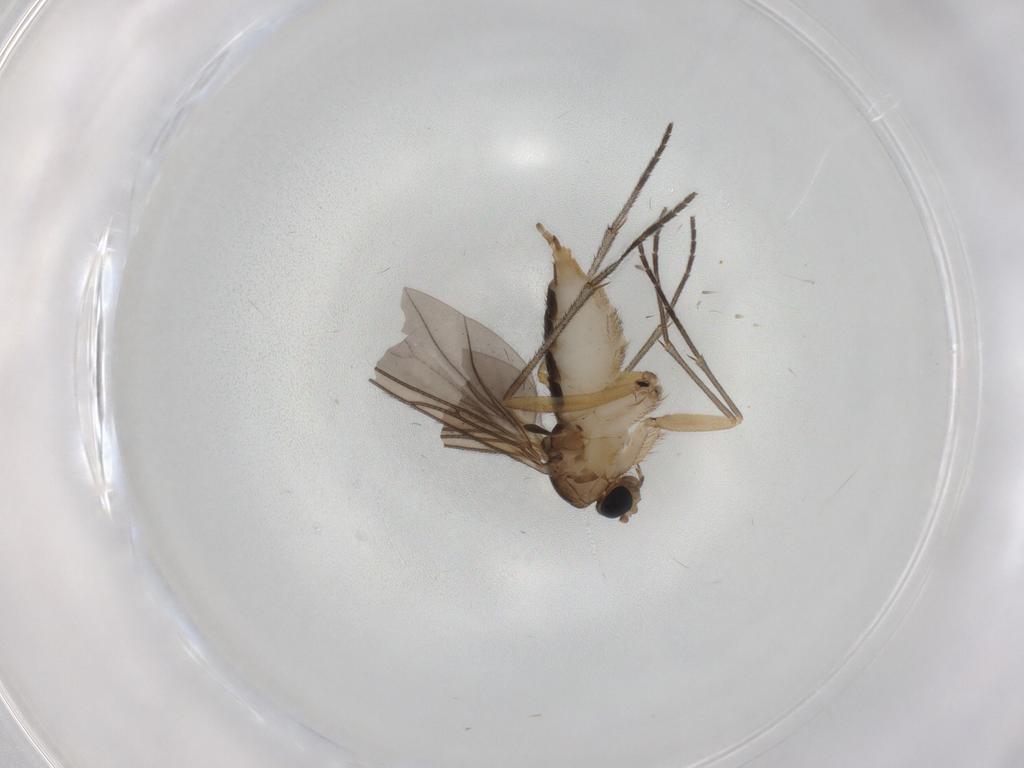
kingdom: Animalia
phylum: Arthropoda
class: Insecta
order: Diptera
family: Sciaridae
